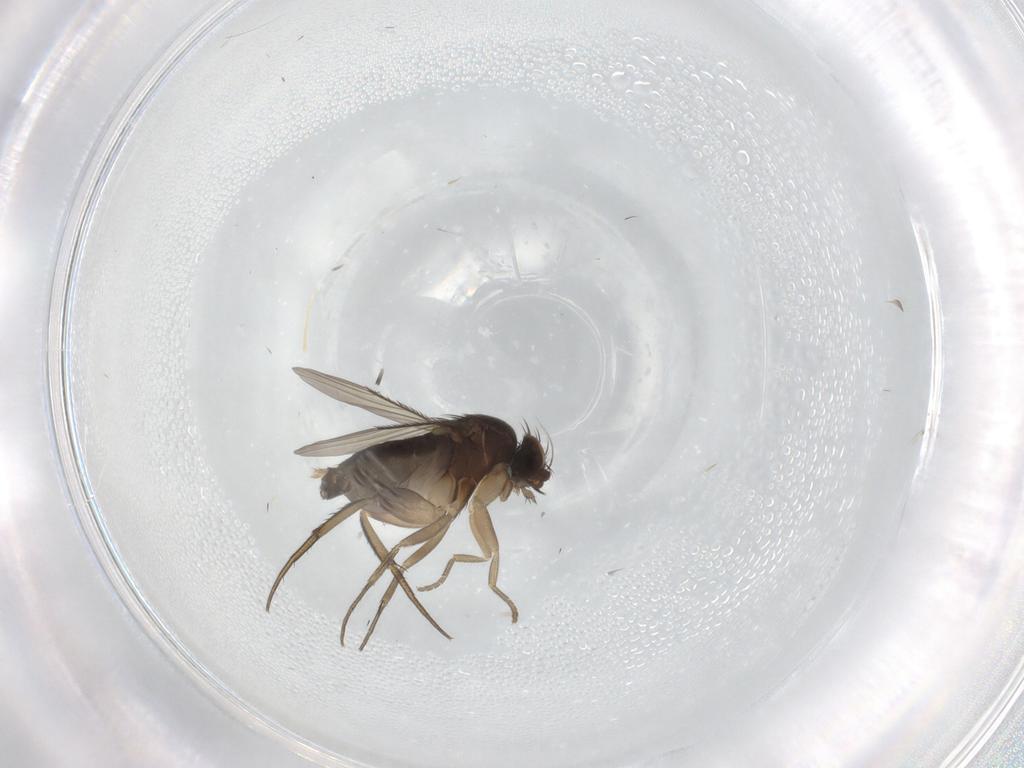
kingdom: Animalia
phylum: Arthropoda
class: Insecta
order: Diptera
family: Phoridae
